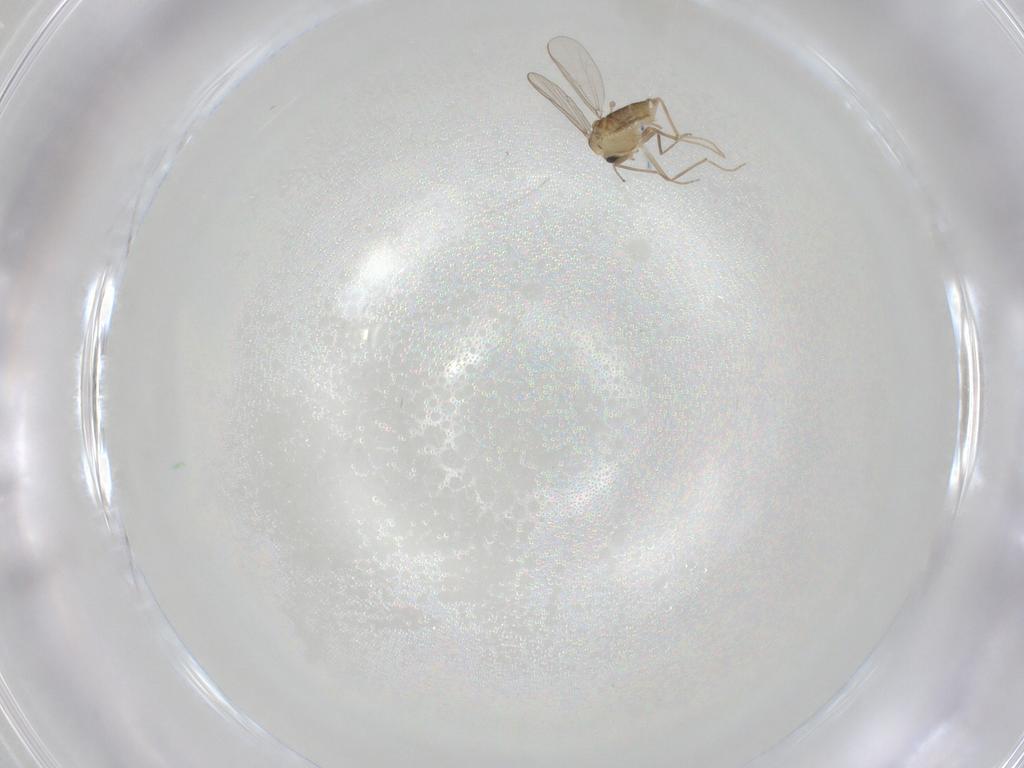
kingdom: Animalia
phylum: Arthropoda
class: Insecta
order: Diptera
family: Chironomidae
